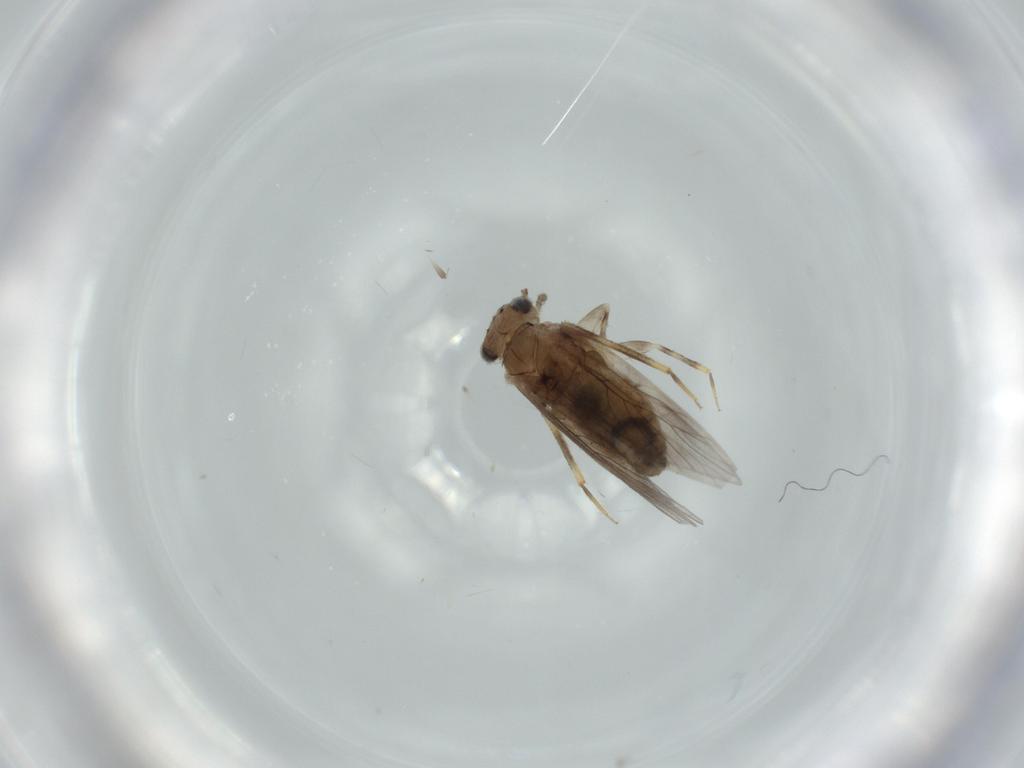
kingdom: Animalia
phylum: Arthropoda
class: Insecta
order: Psocodea
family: Lepidopsocidae
